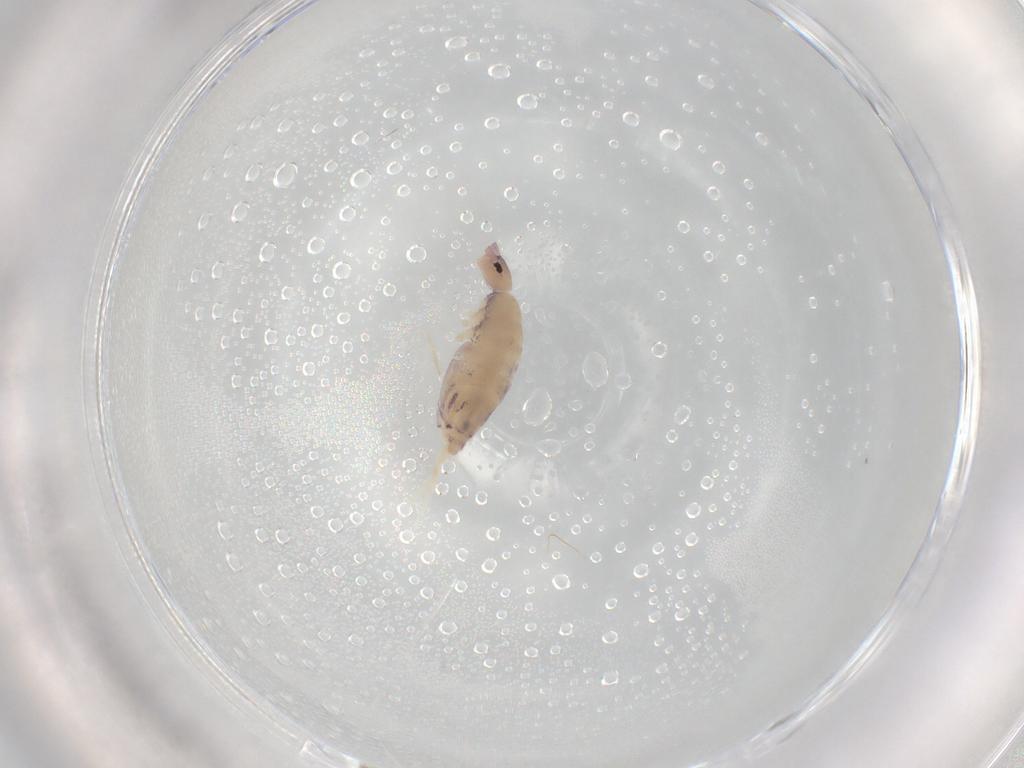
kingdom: Animalia
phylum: Arthropoda
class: Collembola
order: Entomobryomorpha
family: Entomobryidae
